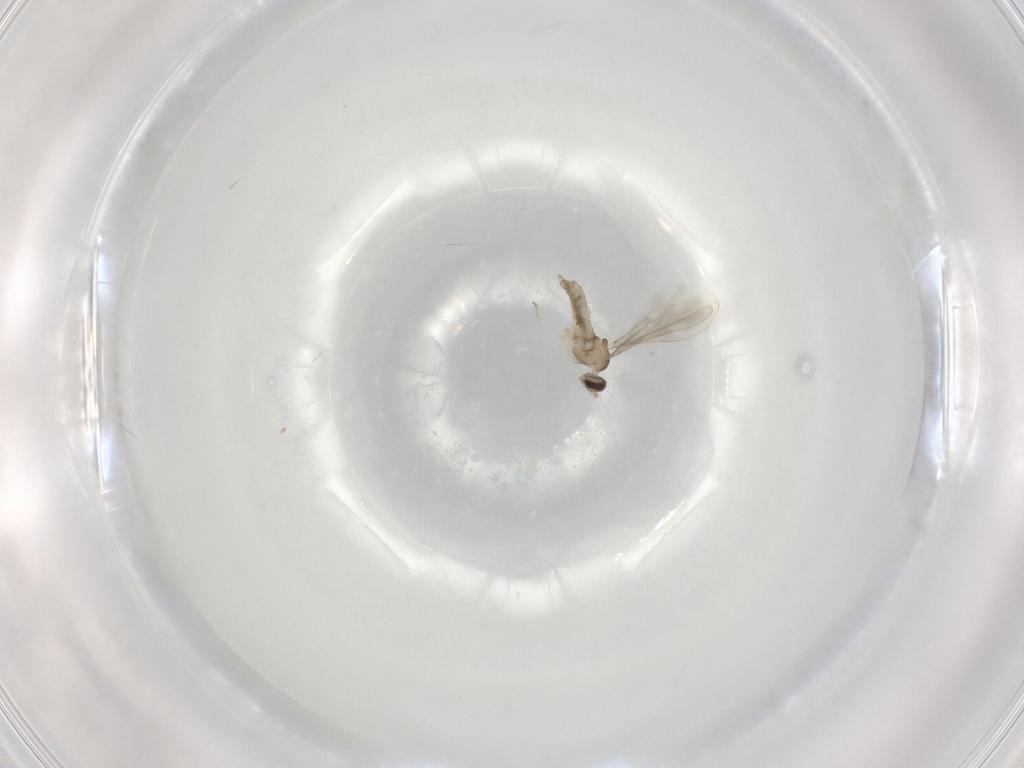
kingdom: Animalia
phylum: Arthropoda
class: Insecta
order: Diptera
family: Cecidomyiidae
